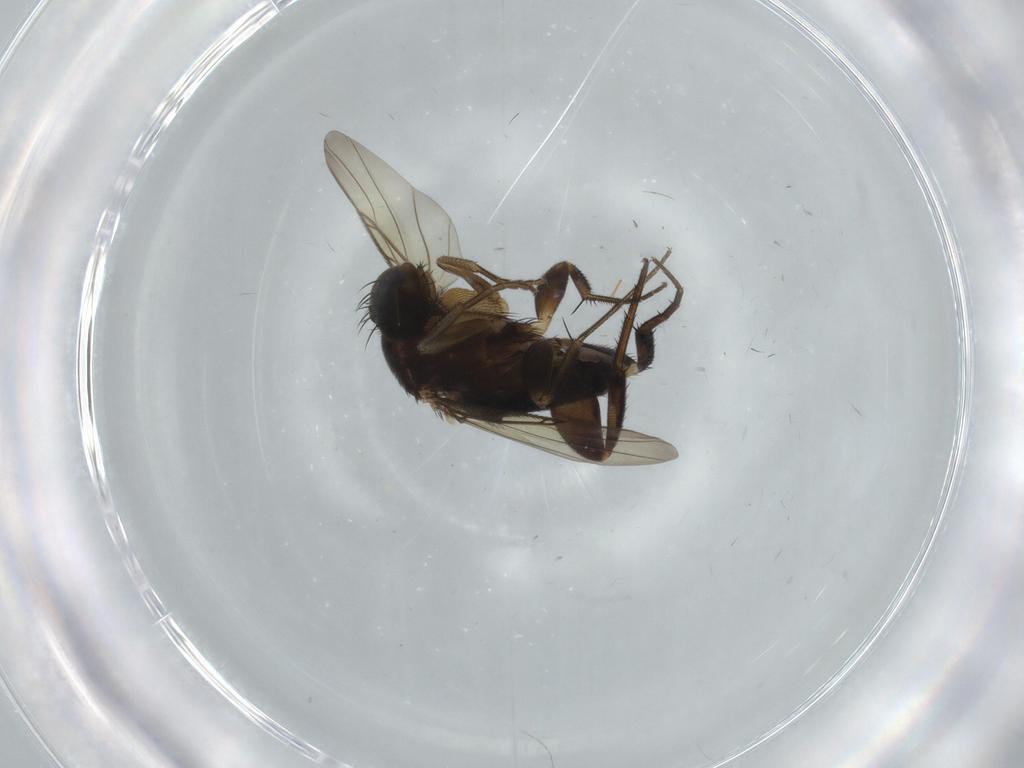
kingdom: Animalia
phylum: Arthropoda
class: Insecta
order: Diptera
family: Phoridae
